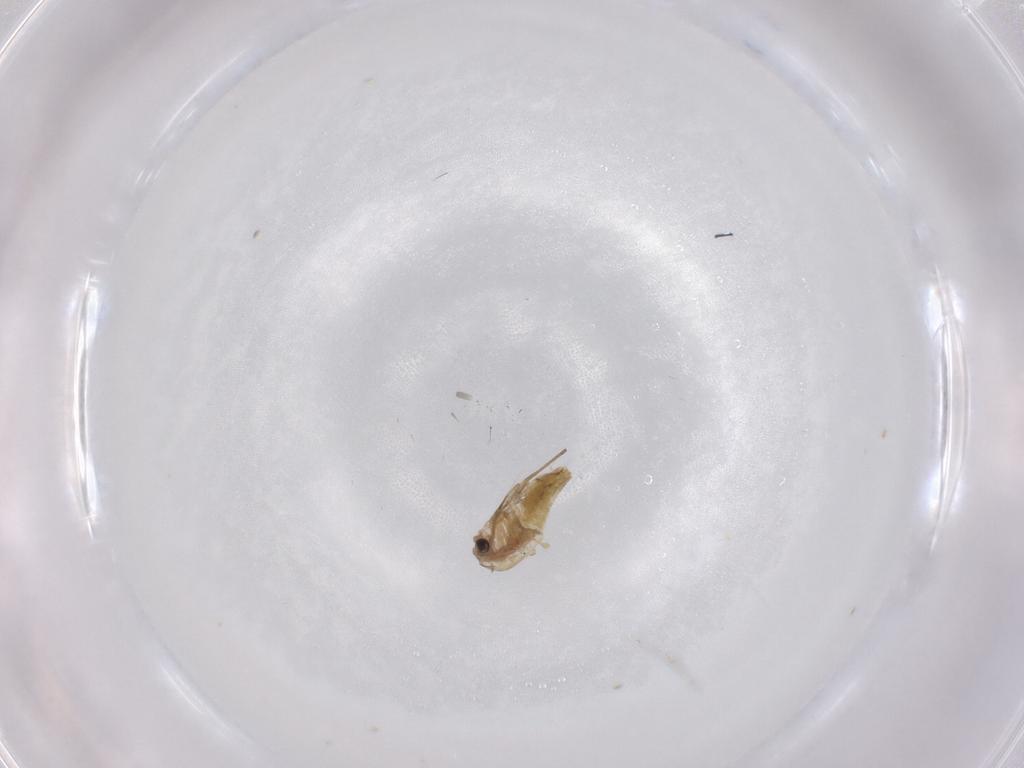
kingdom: Animalia
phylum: Arthropoda
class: Insecta
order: Diptera
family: Chironomidae
